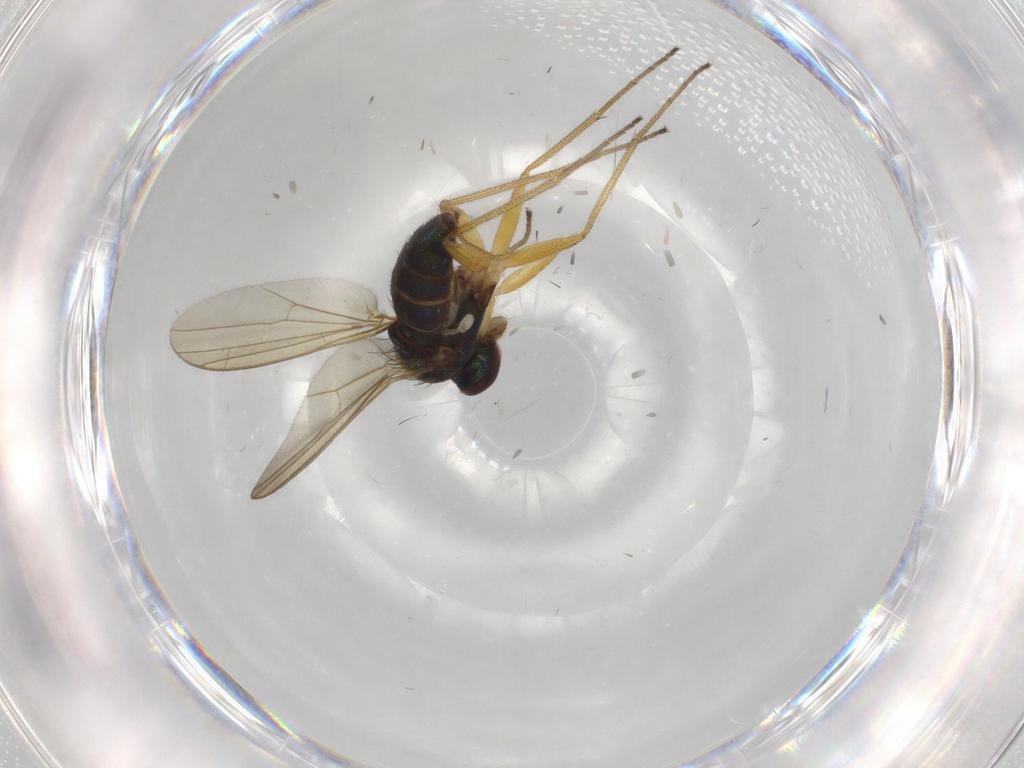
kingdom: Animalia
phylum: Arthropoda
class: Insecta
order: Diptera
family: Dolichopodidae
